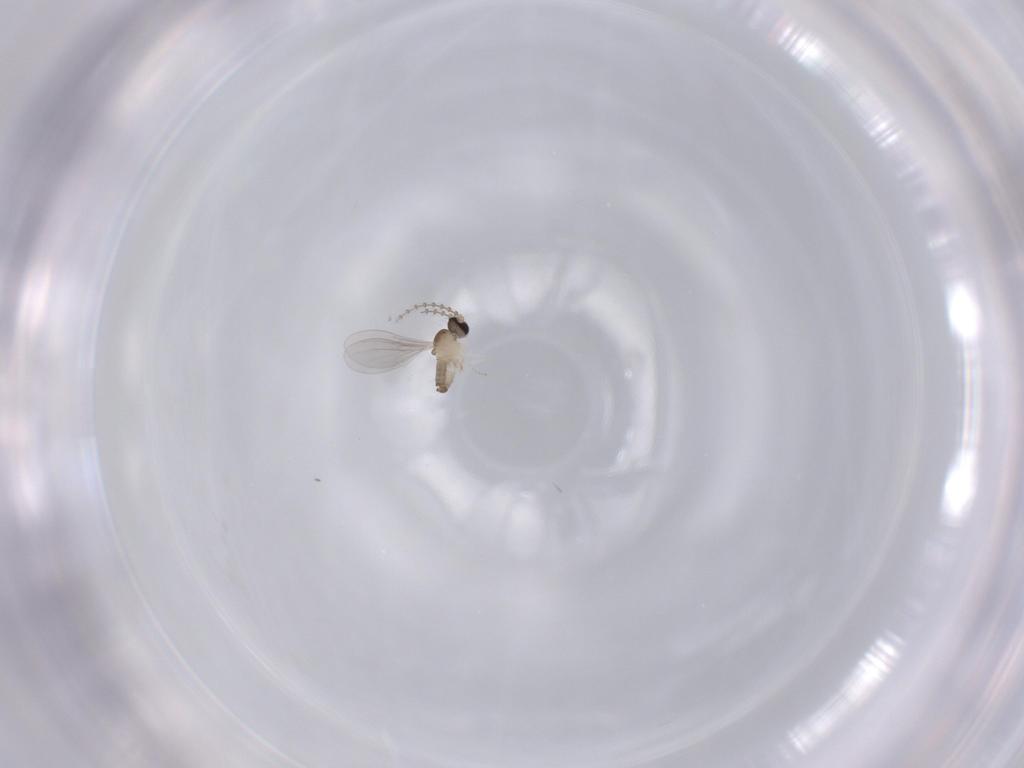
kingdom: Animalia
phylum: Arthropoda
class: Insecta
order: Diptera
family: Cecidomyiidae
